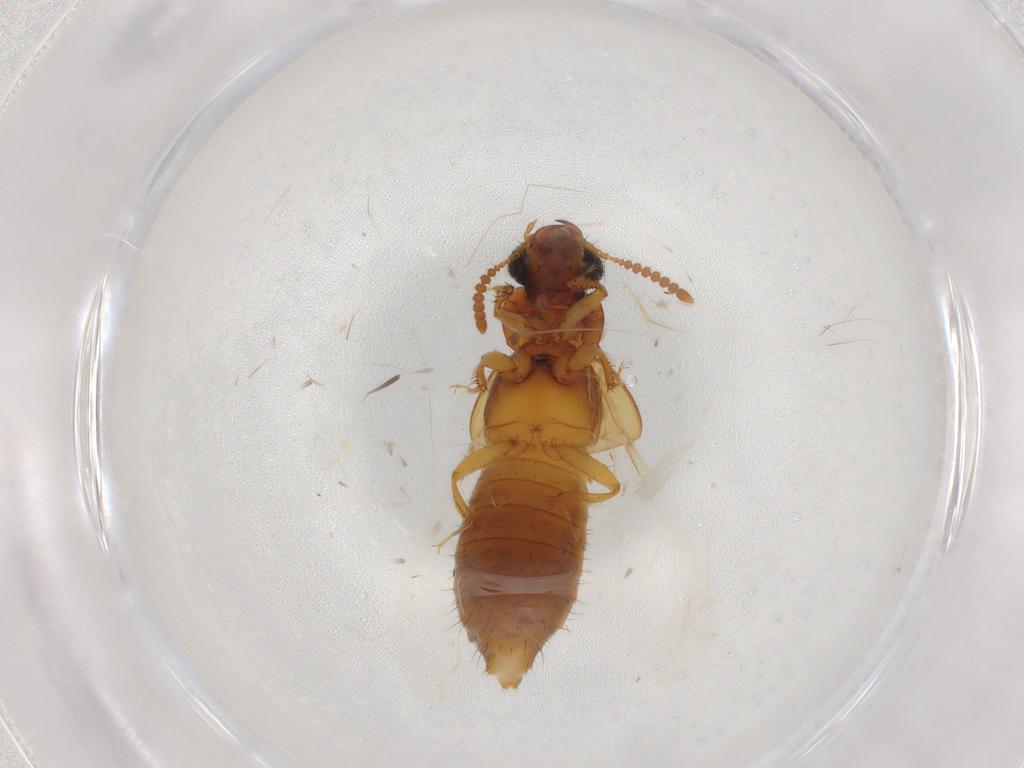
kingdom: Animalia
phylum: Arthropoda
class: Insecta
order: Coleoptera
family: Staphylinidae
